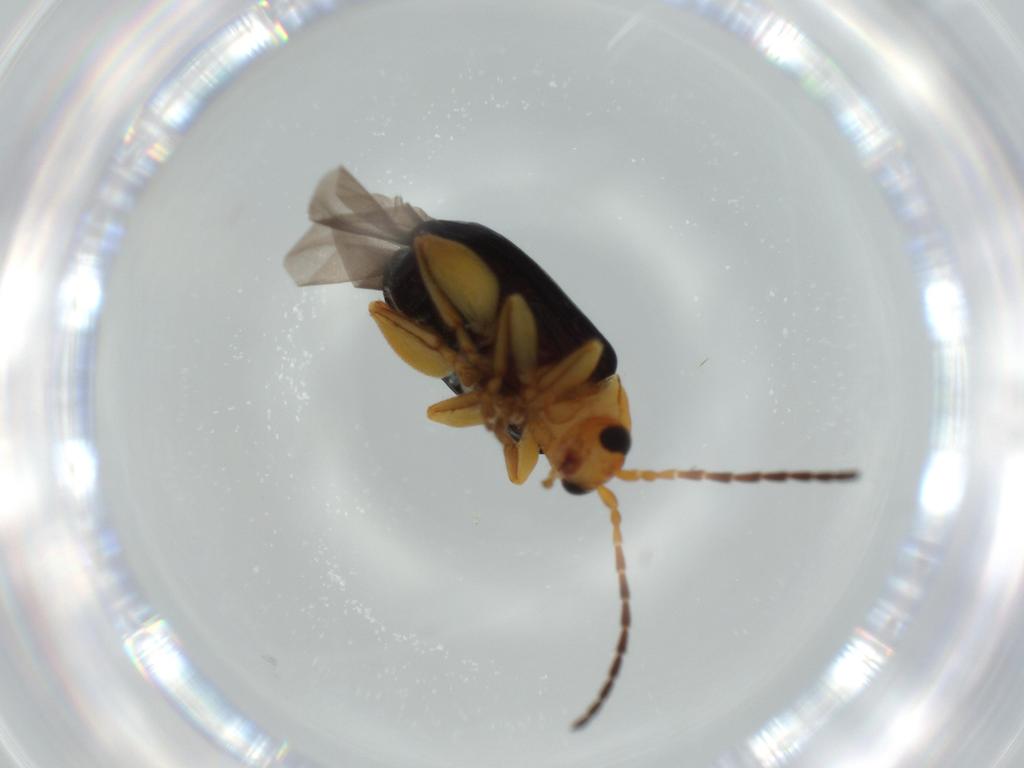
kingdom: Animalia
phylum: Arthropoda
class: Insecta
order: Coleoptera
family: Chrysomelidae
